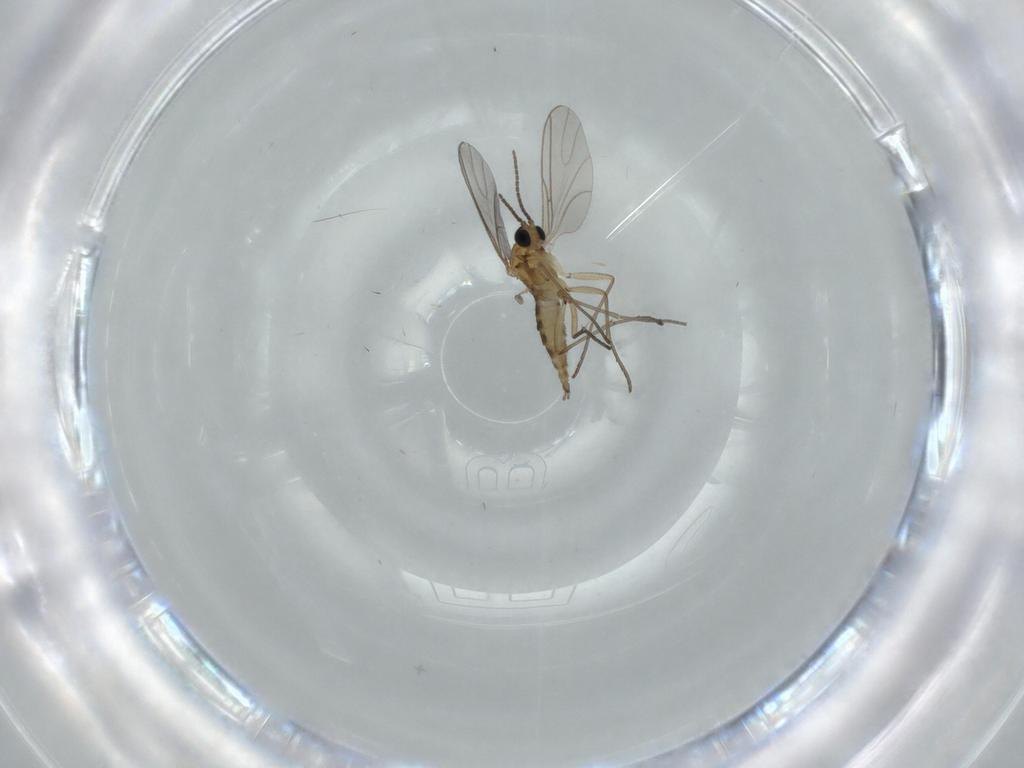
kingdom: Animalia
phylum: Arthropoda
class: Insecta
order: Diptera
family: Sciaridae
